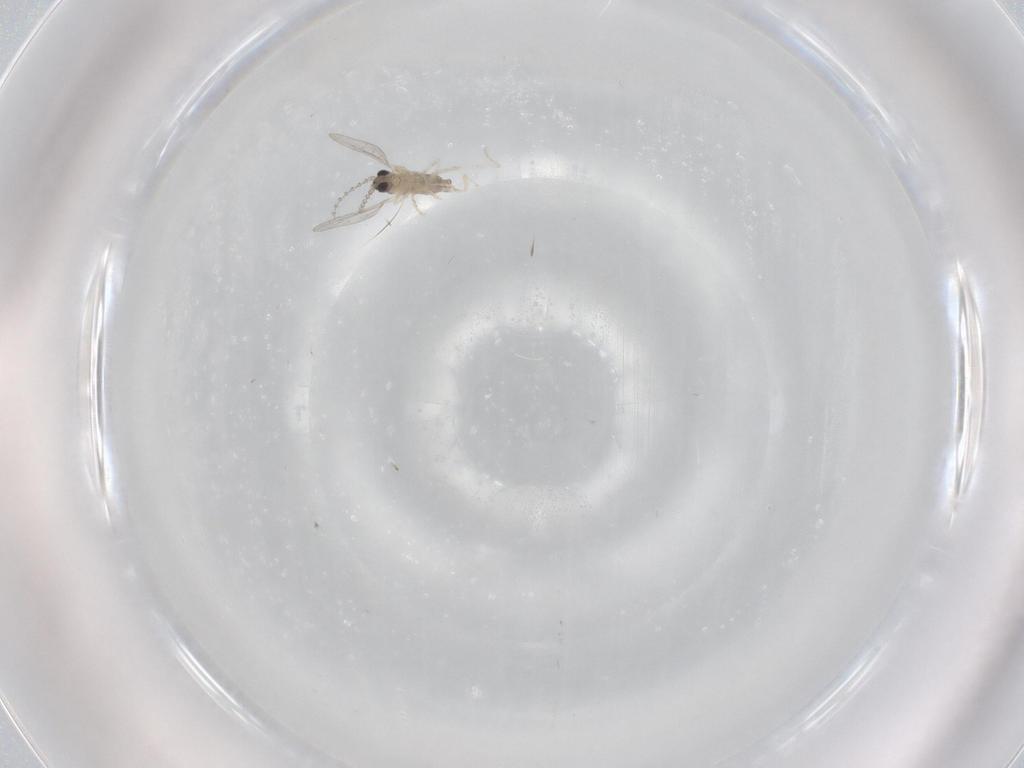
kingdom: Animalia
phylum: Arthropoda
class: Insecta
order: Diptera
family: Cecidomyiidae
